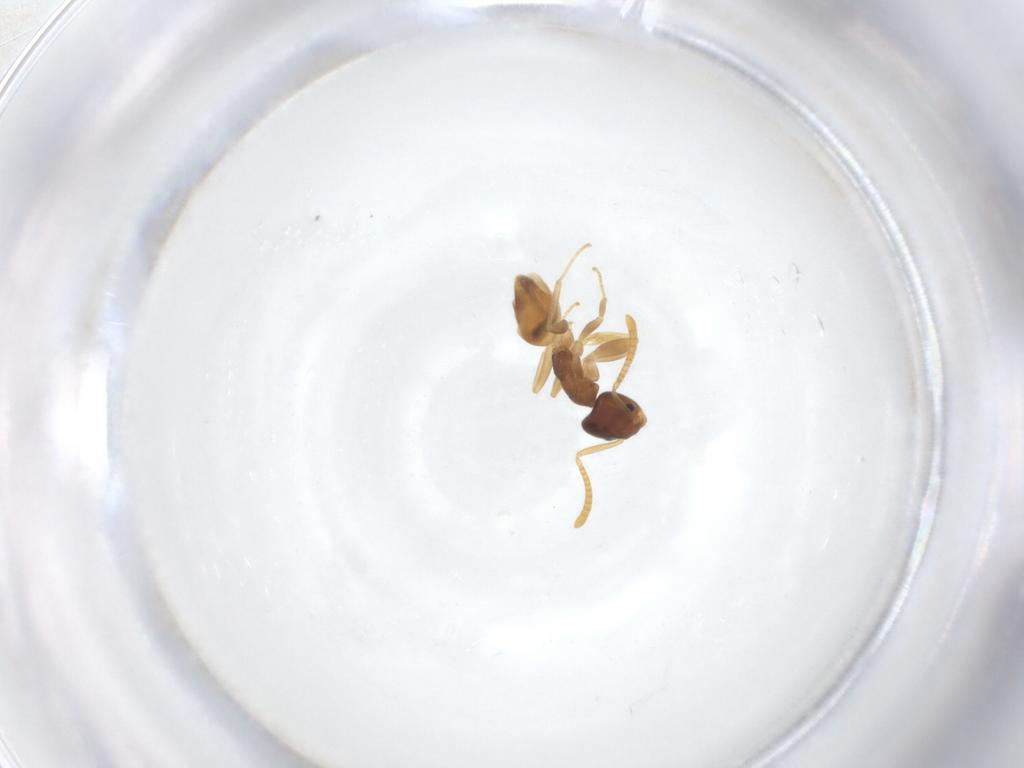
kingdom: Animalia
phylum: Arthropoda
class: Insecta
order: Hymenoptera
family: Formicidae
